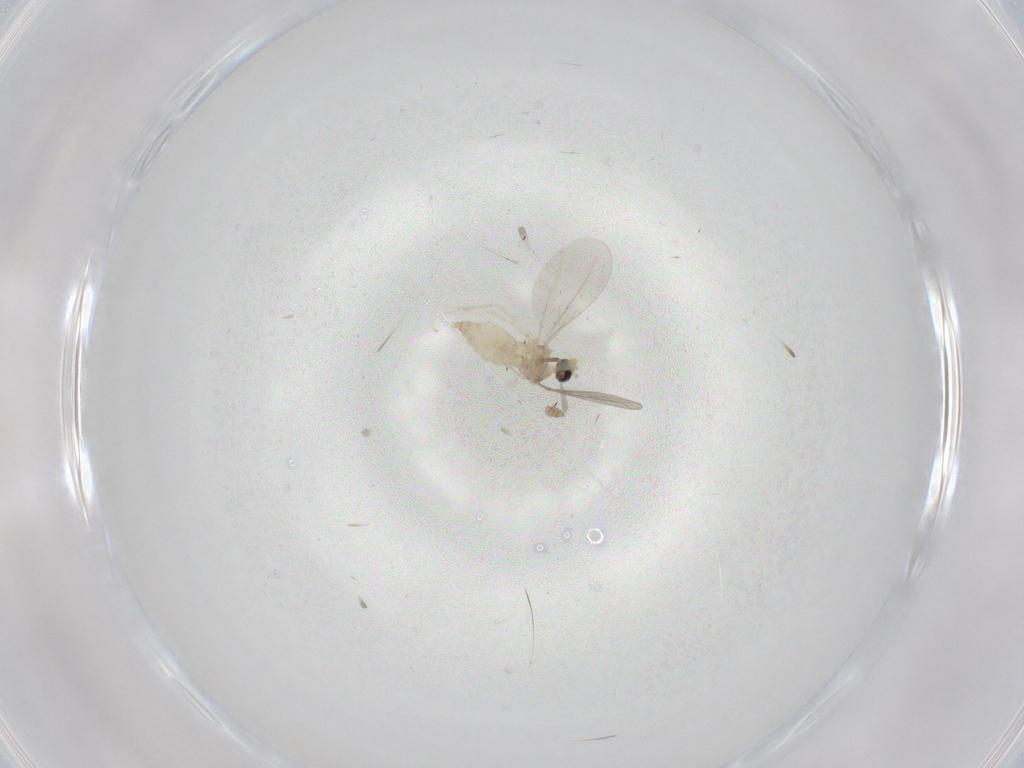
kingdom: Animalia
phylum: Arthropoda
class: Insecta
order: Diptera
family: Cecidomyiidae
